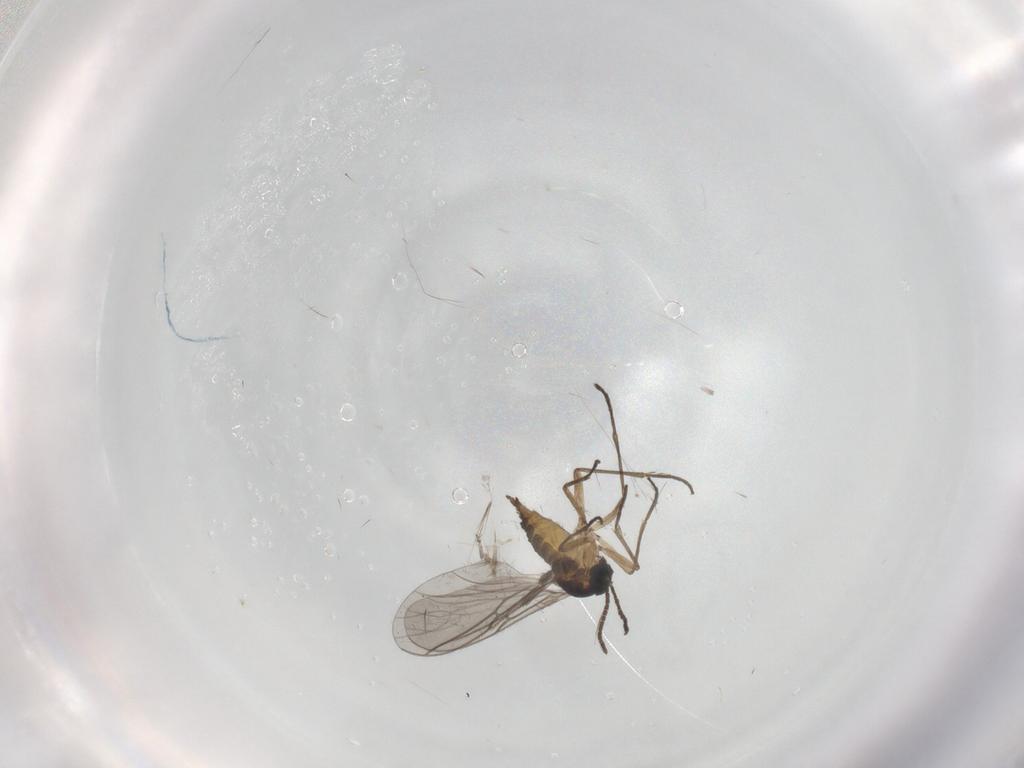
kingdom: Animalia
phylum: Arthropoda
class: Insecta
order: Diptera
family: Sciaridae
